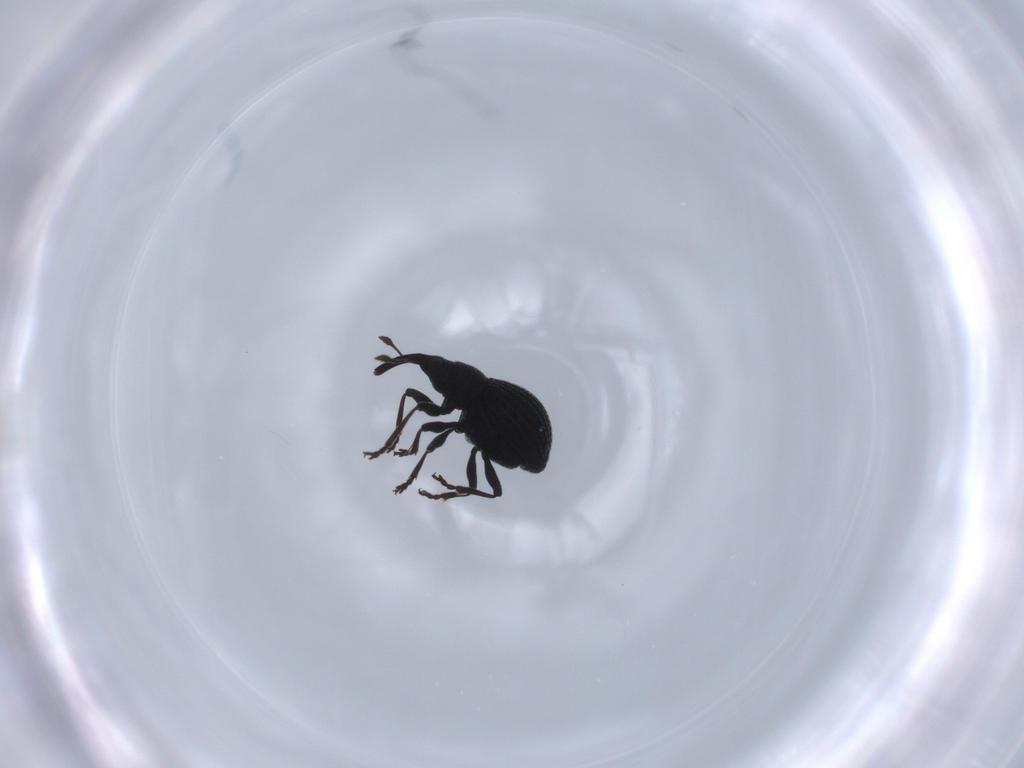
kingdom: Animalia
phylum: Arthropoda
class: Insecta
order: Coleoptera
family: Brentidae
